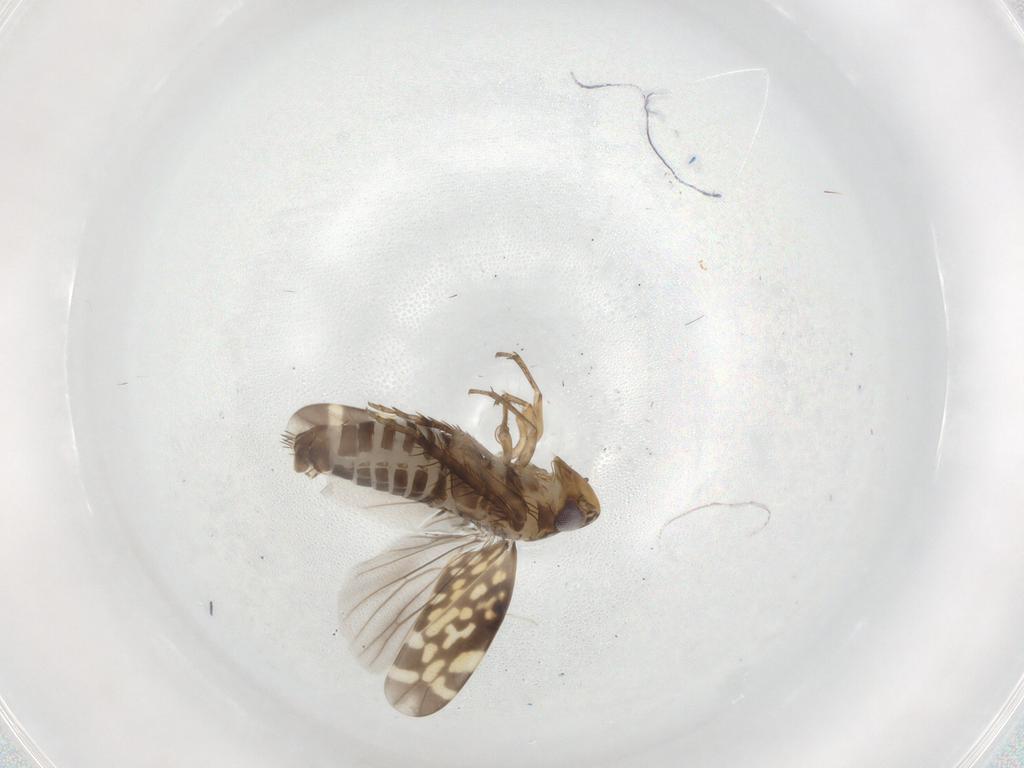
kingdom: Animalia
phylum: Arthropoda
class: Insecta
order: Hemiptera
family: Cicadellidae
